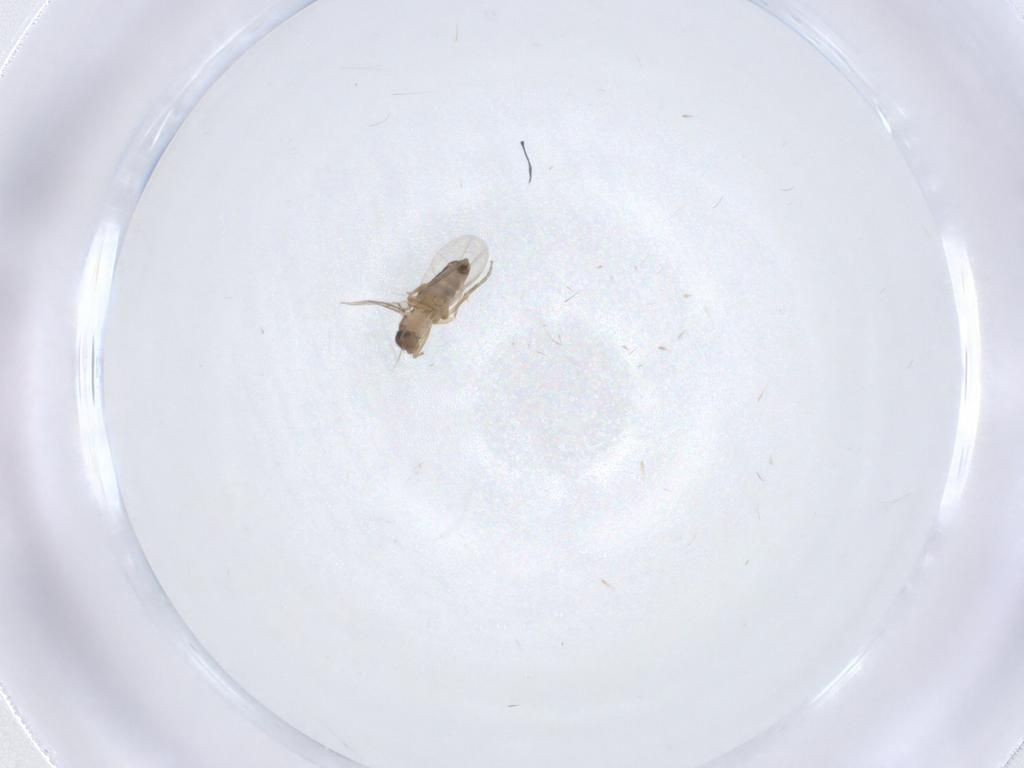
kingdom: Animalia
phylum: Arthropoda
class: Insecta
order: Diptera
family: Phoridae
